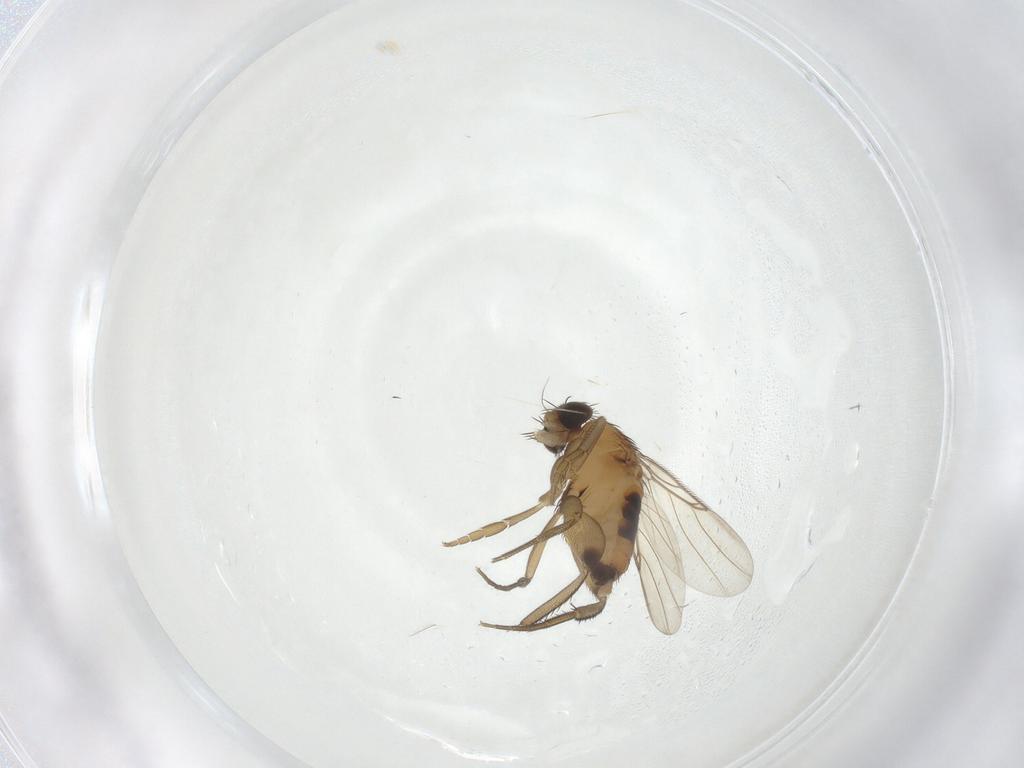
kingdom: Animalia
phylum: Arthropoda
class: Insecta
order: Diptera
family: Phoridae
